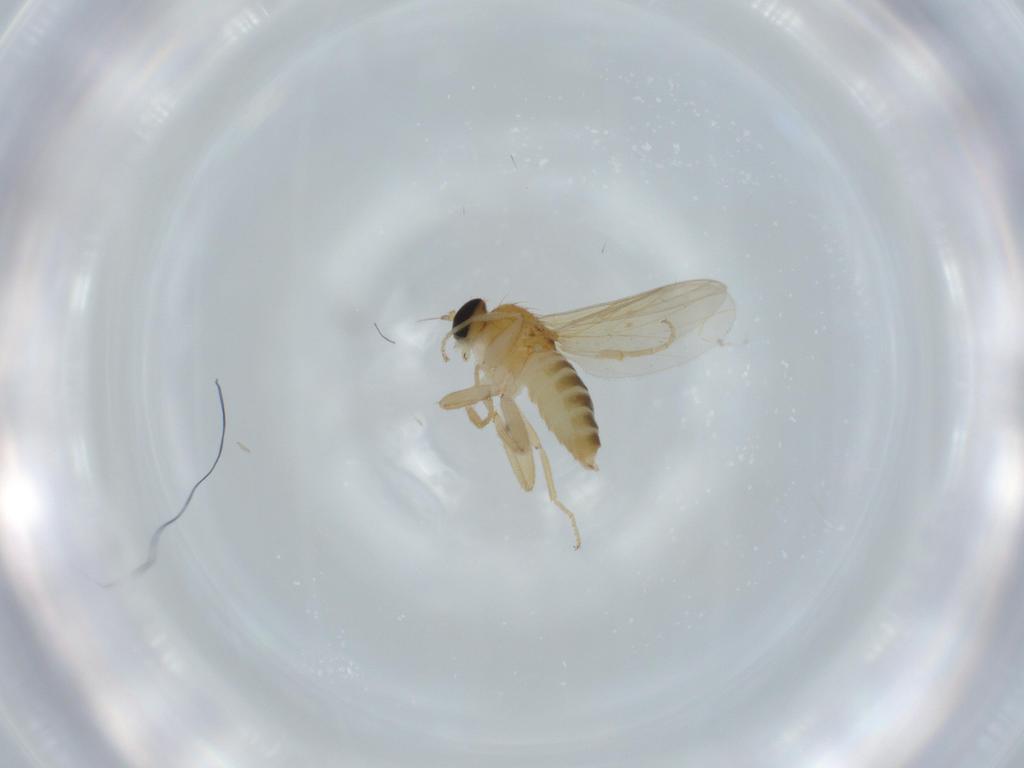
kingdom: Animalia
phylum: Arthropoda
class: Insecta
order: Diptera
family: Hybotidae
